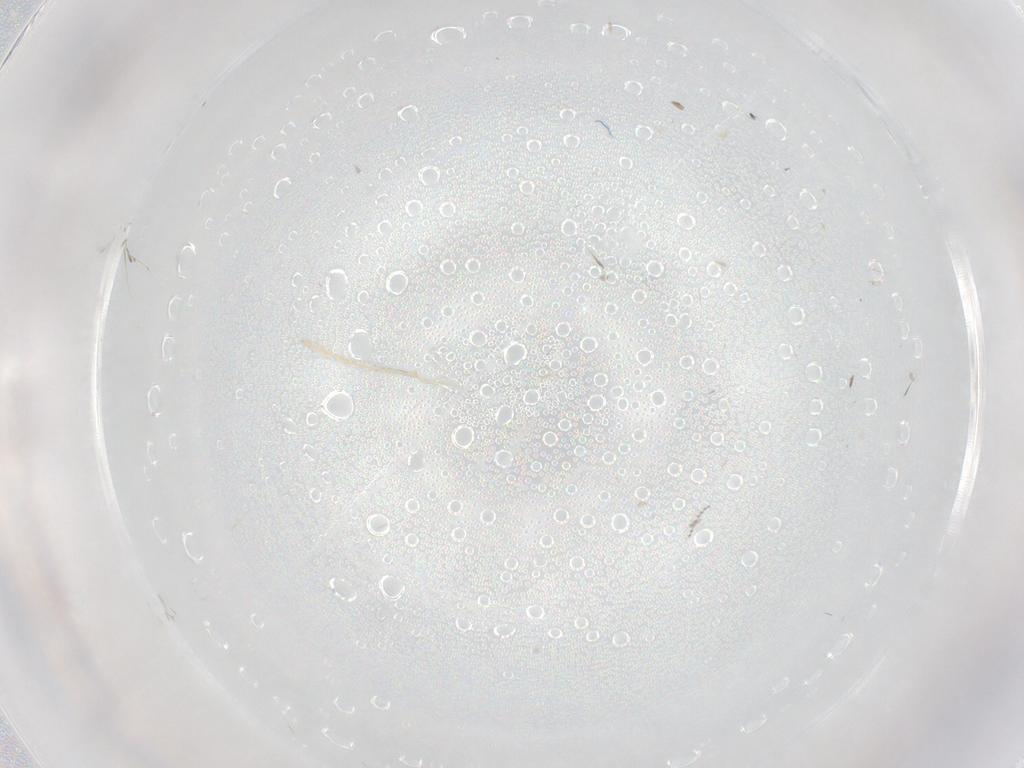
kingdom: Animalia
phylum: Arthropoda
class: Insecta
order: Diptera
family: Cecidomyiidae
